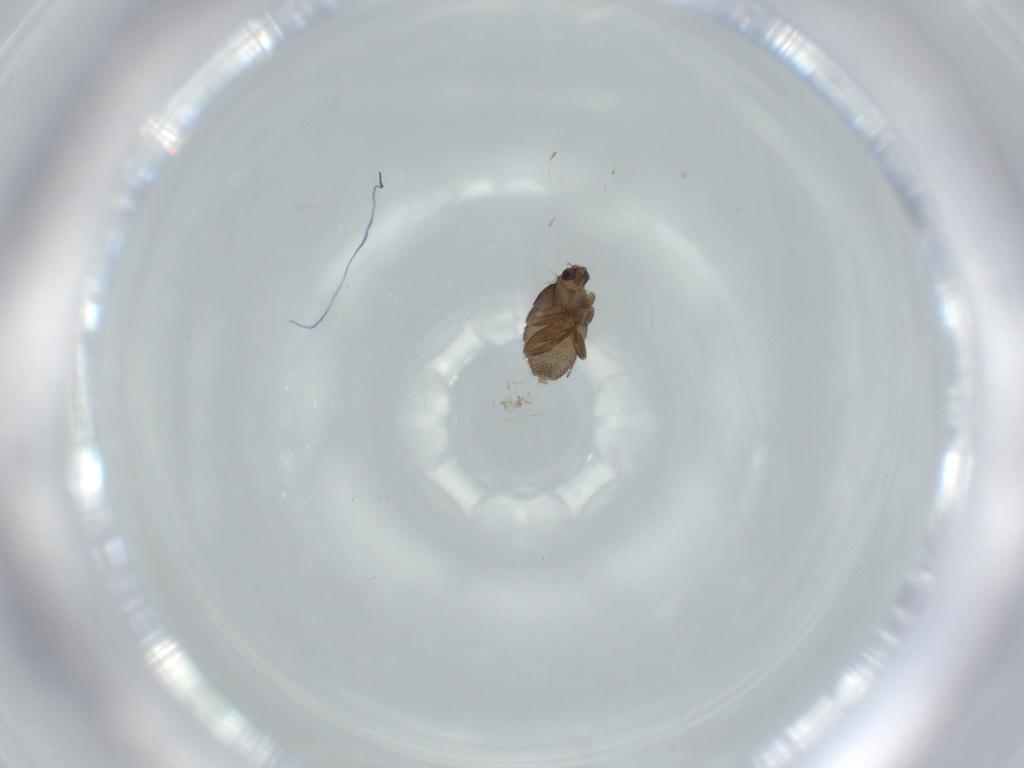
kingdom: Animalia
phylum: Arthropoda
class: Insecta
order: Diptera
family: Phoridae
